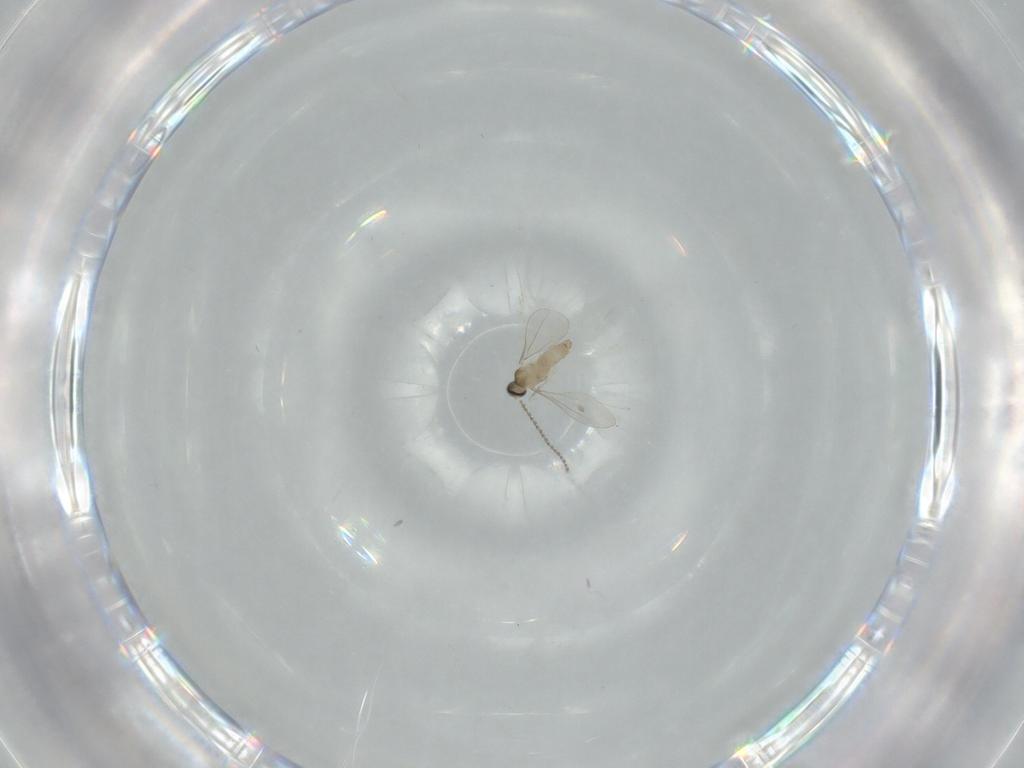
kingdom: Animalia
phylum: Arthropoda
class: Insecta
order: Diptera
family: Cecidomyiidae
